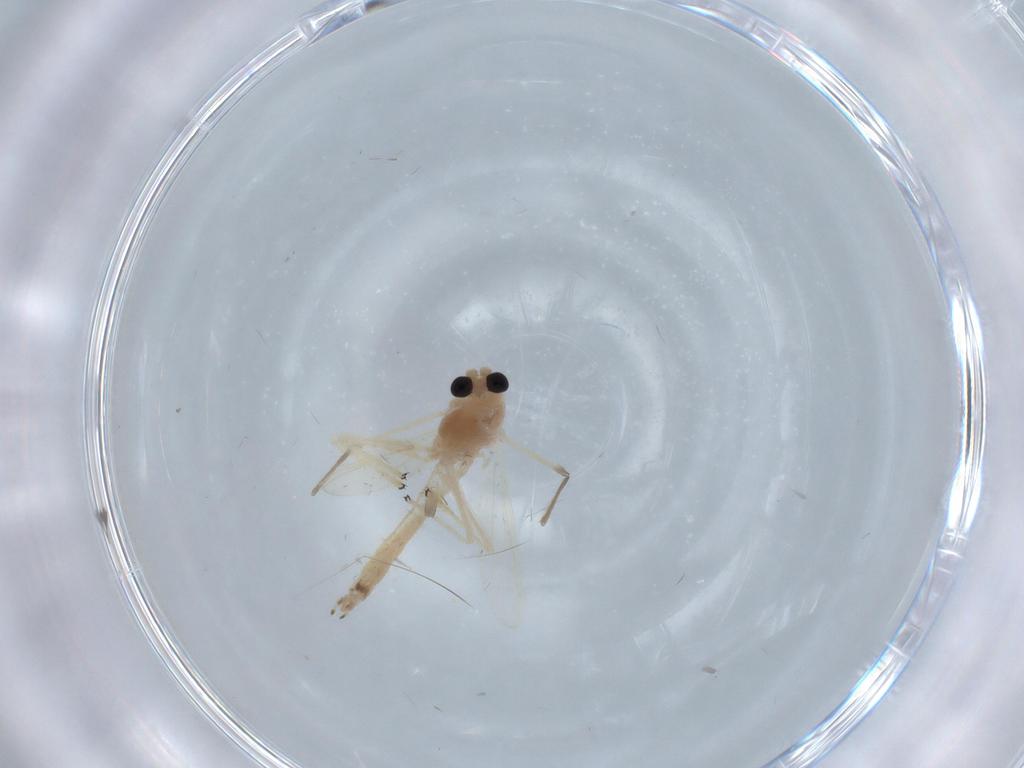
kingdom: Animalia
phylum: Arthropoda
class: Insecta
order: Diptera
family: Chironomidae
